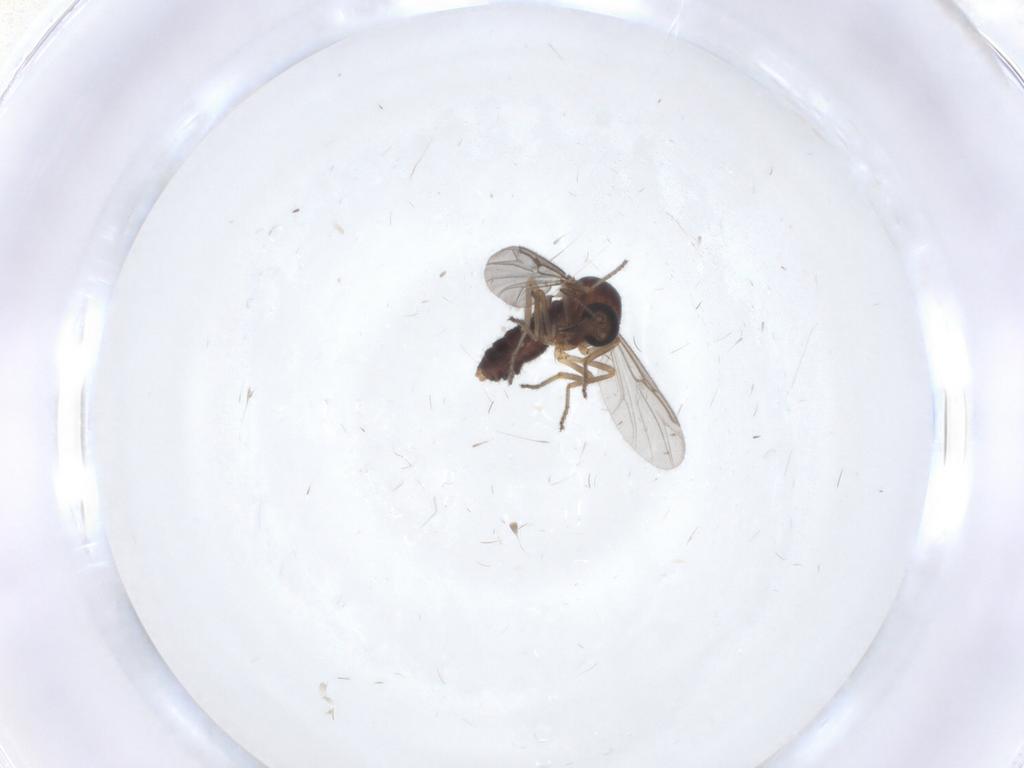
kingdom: Animalia
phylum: Arthropoda
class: Insecta
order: Diptera
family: Ceratopogonidae
